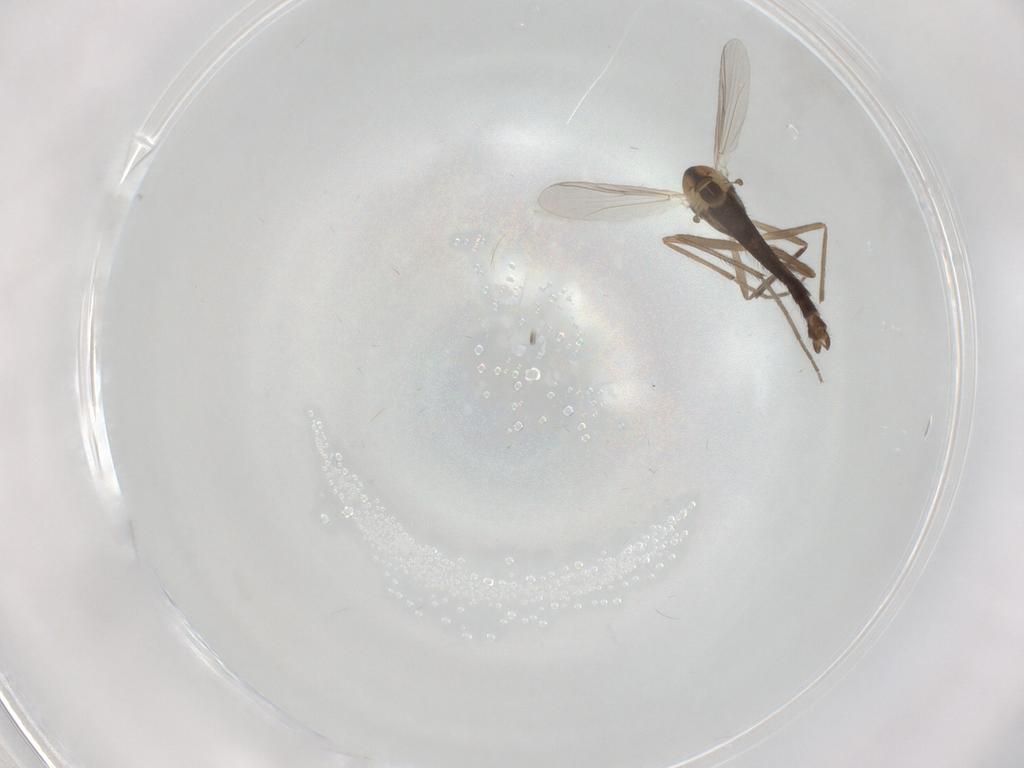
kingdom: Animalia
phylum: Arthropoda
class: Insecta
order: Diptera
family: Chironomidae
